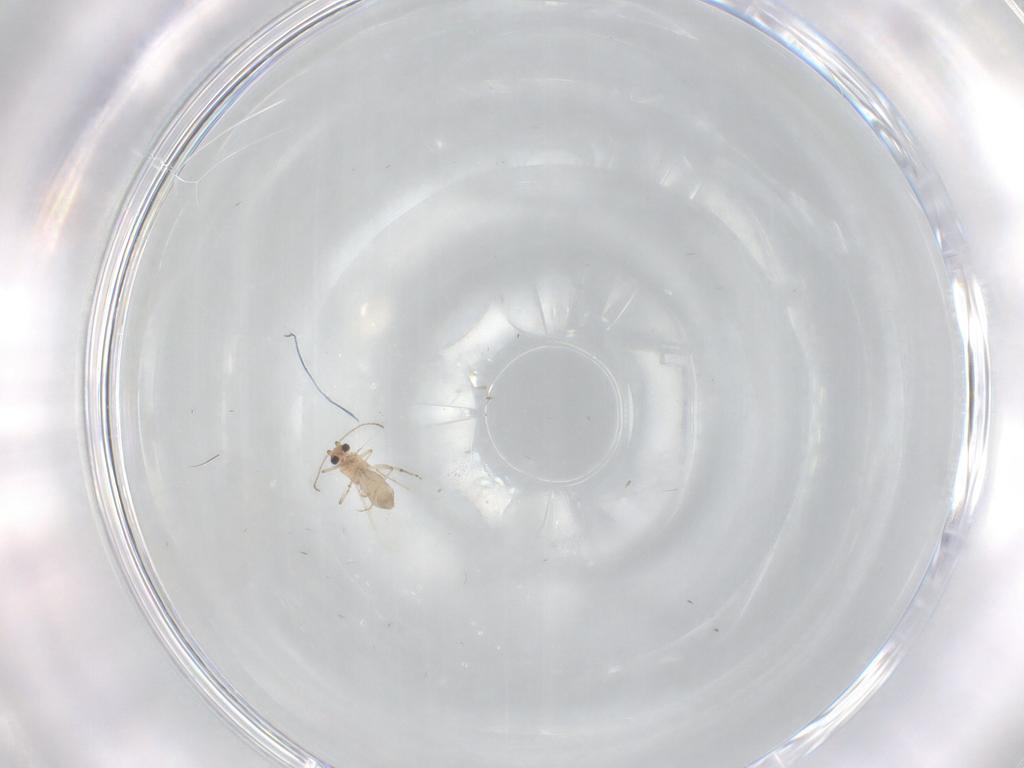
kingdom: Animalia
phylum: Arthropoda
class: Insecta
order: Diptera
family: Ceratopogonidae
